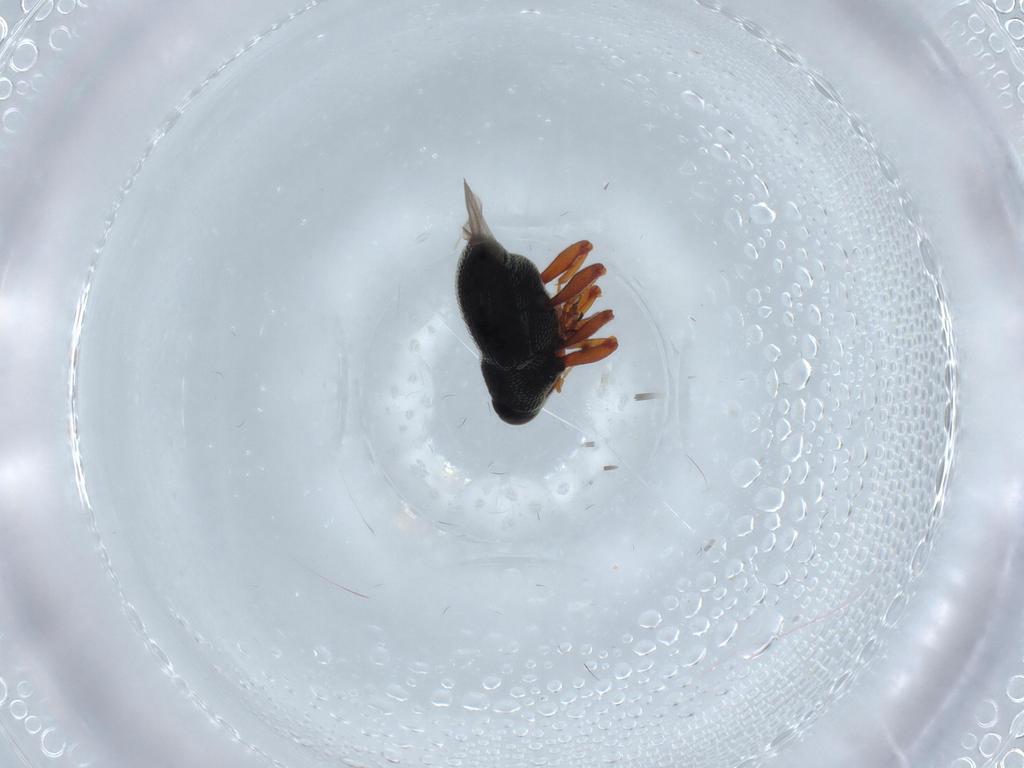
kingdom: Animalia
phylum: Arthropoda
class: Insecta
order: Coleoptera
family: Curculionidae
